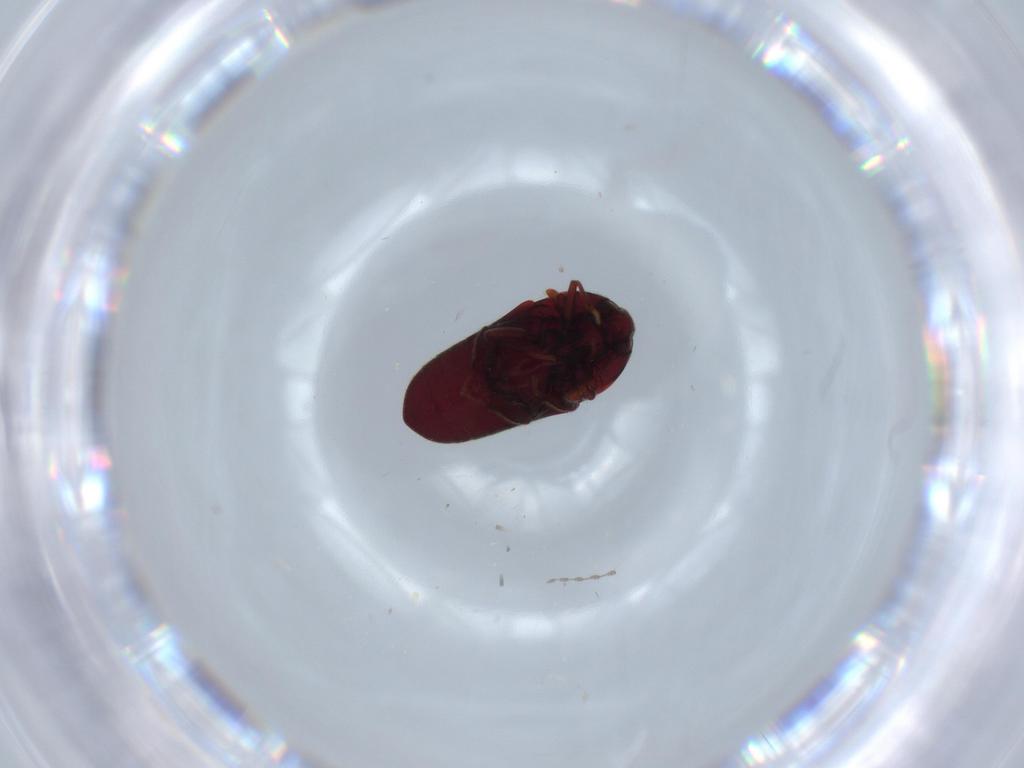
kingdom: Animalia
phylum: Arthropoda
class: Insecta
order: Coleoptera
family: Throscidae
